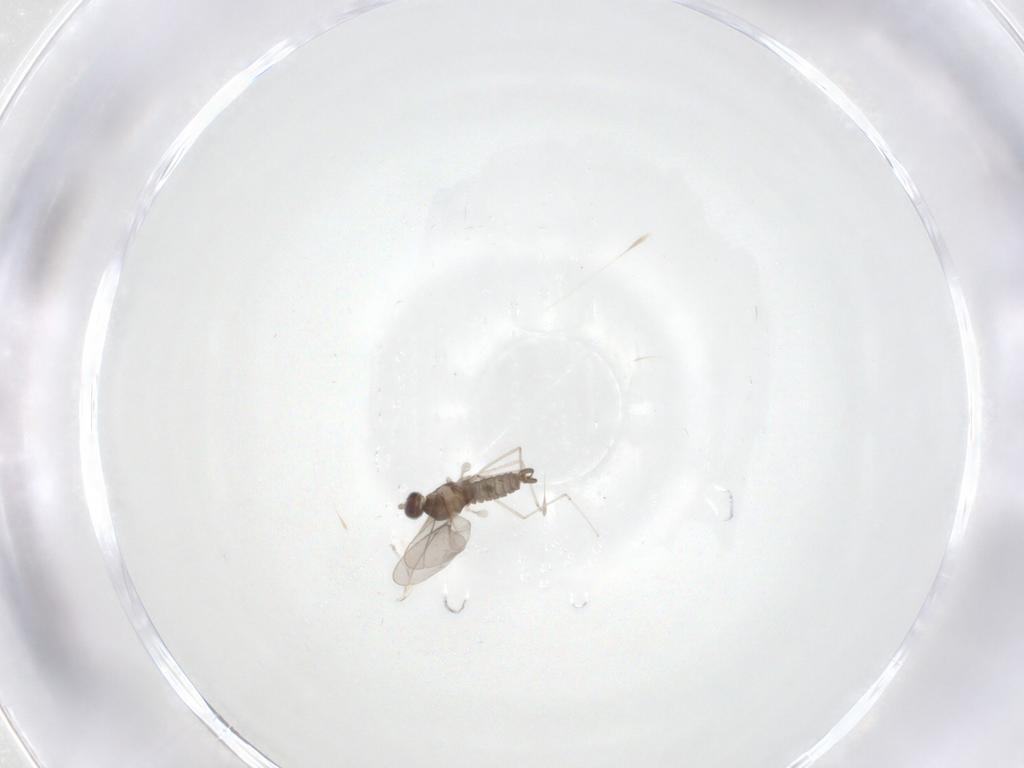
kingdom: Animalia
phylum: Arthropoda
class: Insecta
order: Diptera
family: Cecidomyiidae
